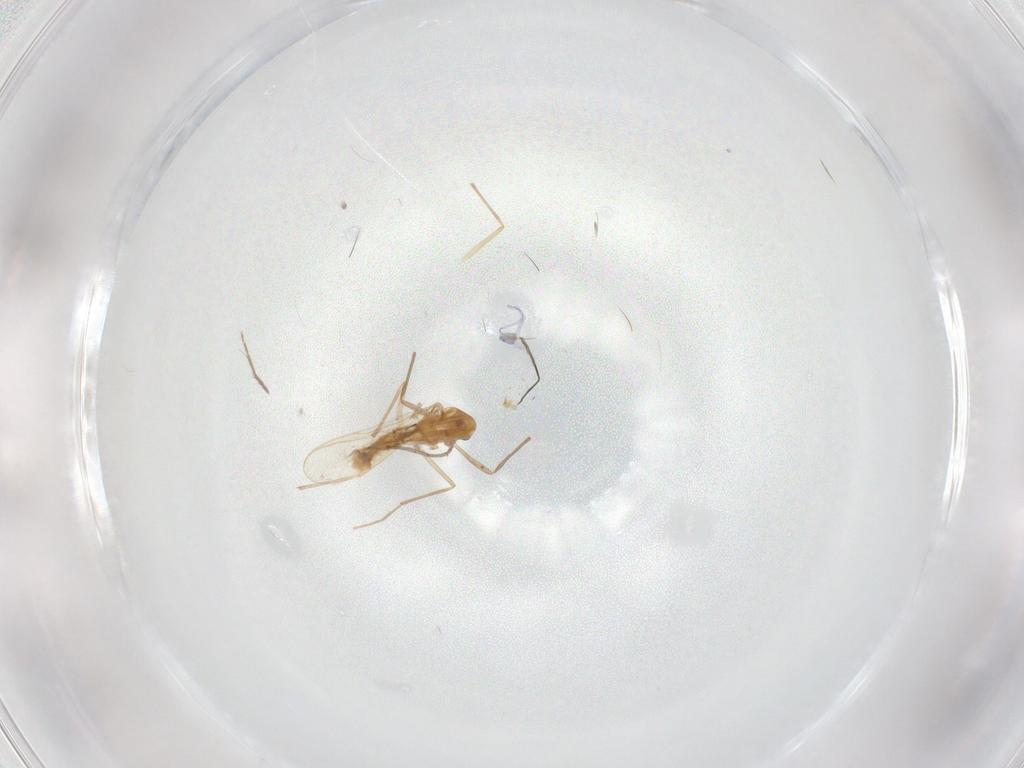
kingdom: Animalia
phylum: Arthropoda
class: Insecta
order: Diptera
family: Chironomidae
